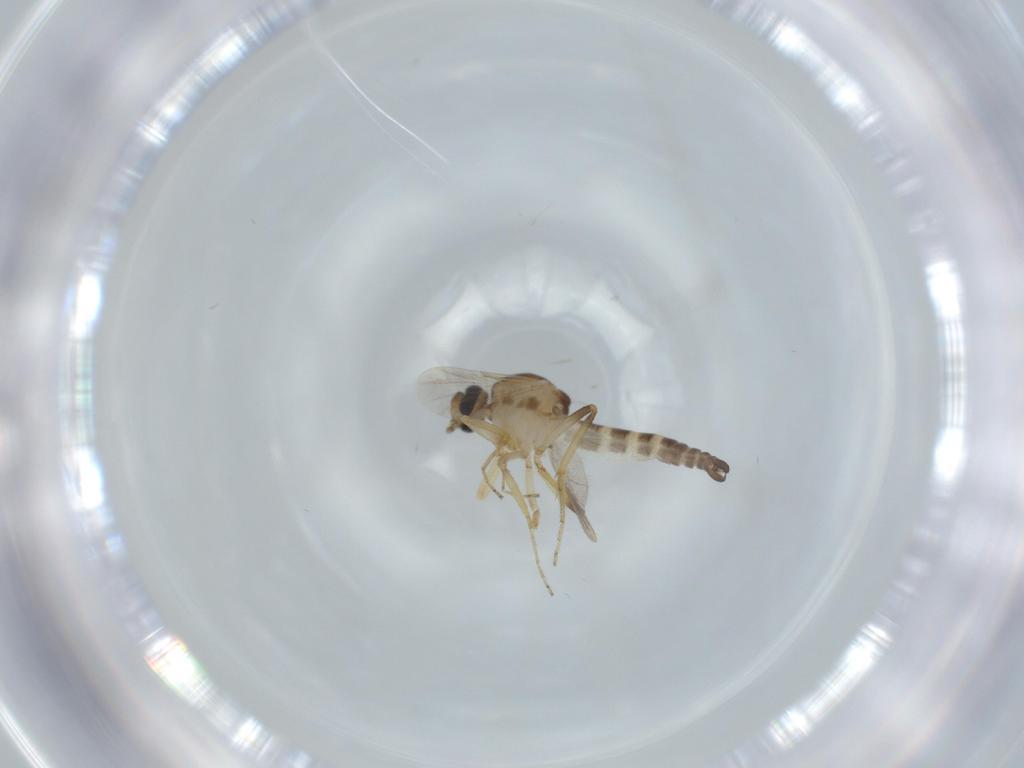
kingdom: Animalia
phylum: Arthropoda
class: Insecta
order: Diptera
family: Ceratopogonidae
